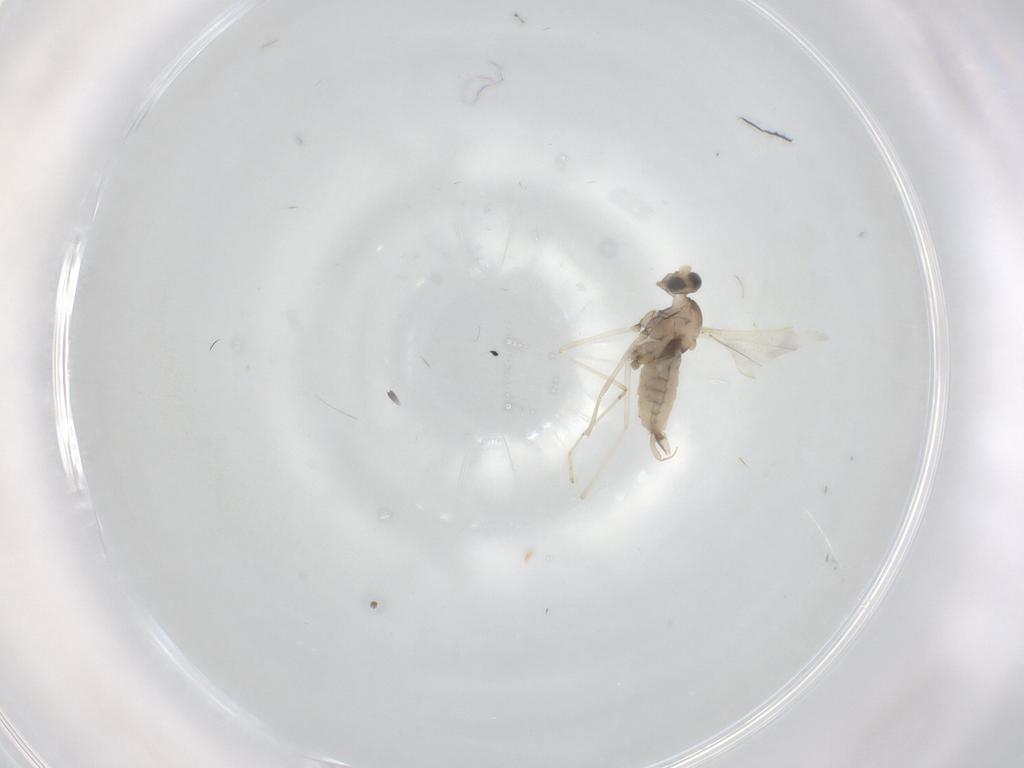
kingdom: Animalia
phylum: Arthropoda
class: Insecta
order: Diptera
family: Cecidomyiidae
